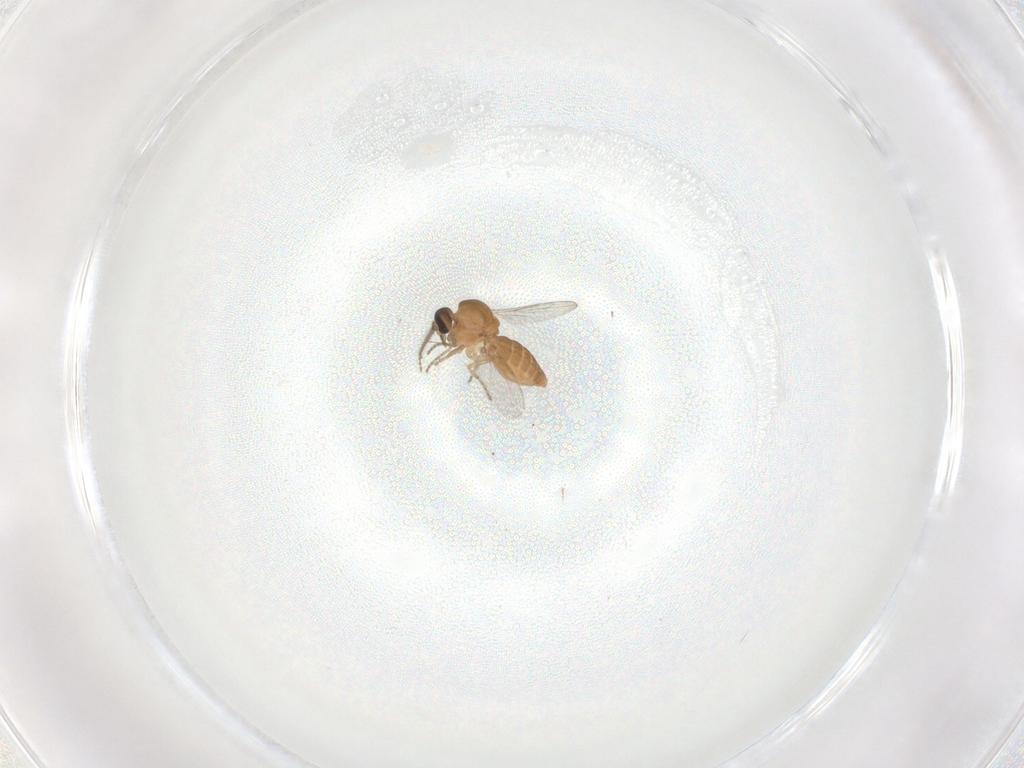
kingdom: Animalia
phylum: Arthropoda
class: Insecta
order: Diptera
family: Ceratopogonidae
